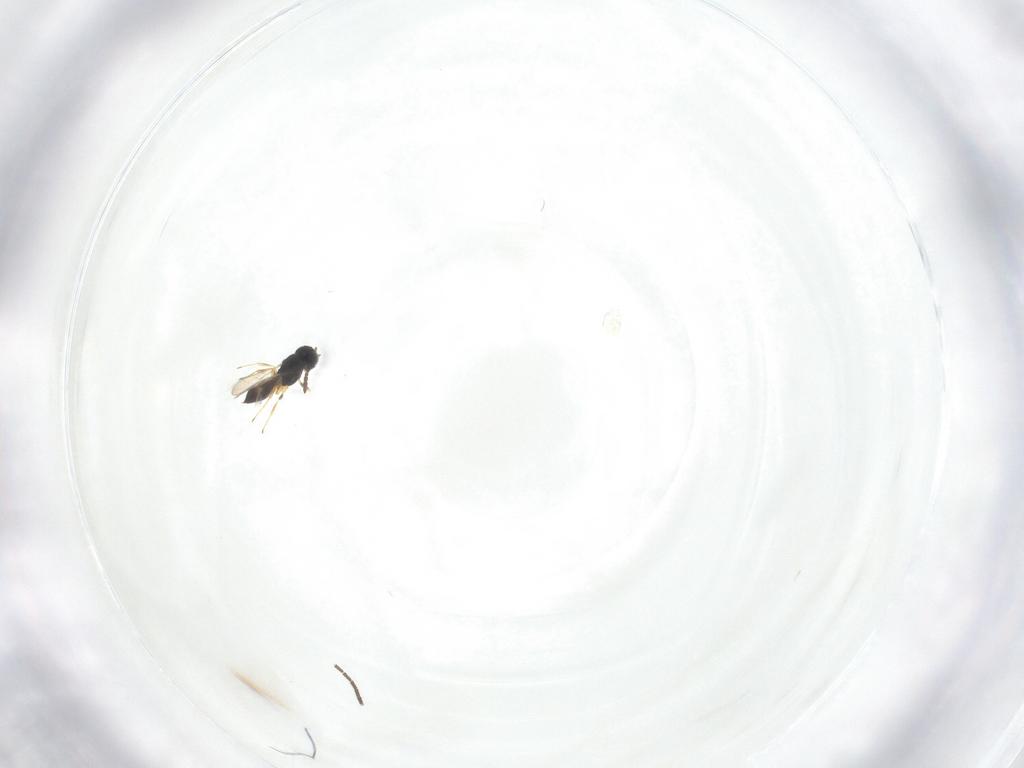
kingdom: Animalia
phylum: Arthropoda
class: Insecta
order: Hymenoptera
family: Scelionidae
